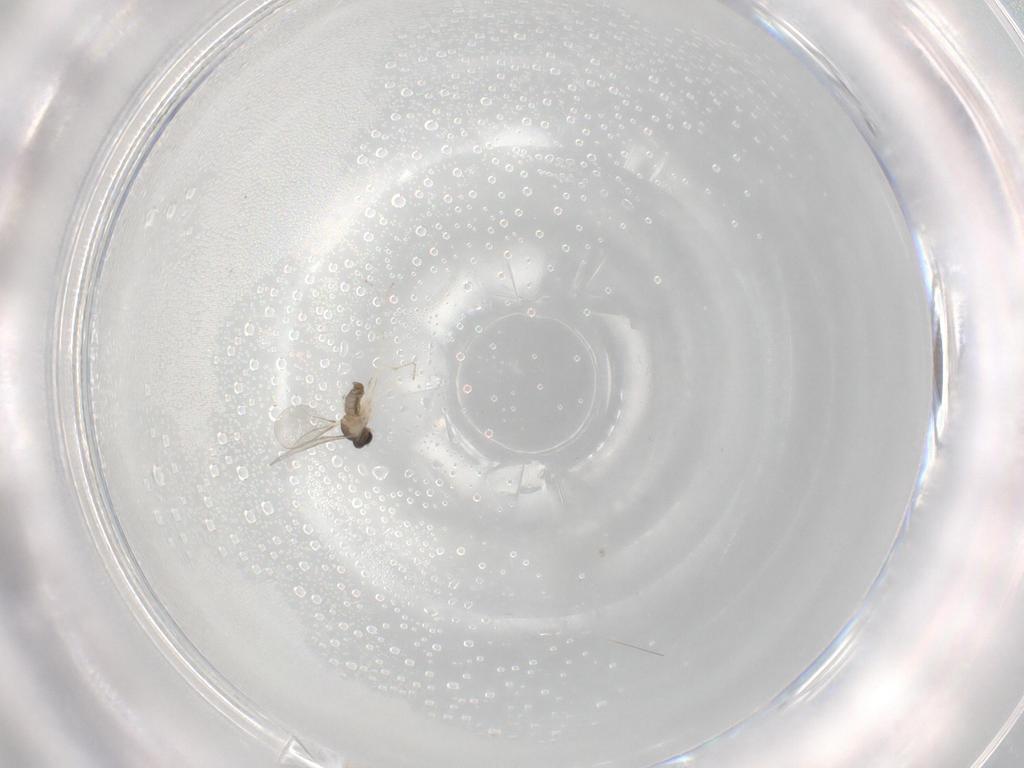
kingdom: Animalia
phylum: Arthropoda
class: Insecta
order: Diptera
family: Cecidomyiidae
